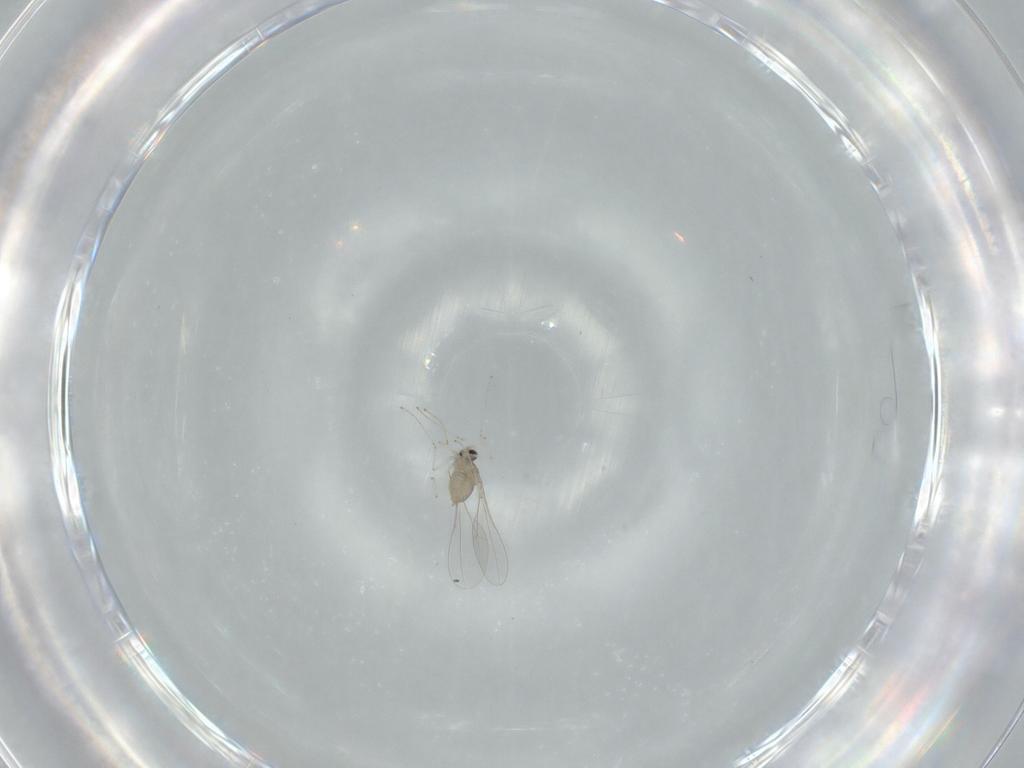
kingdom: Animalia
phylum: Arthropoda
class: Insecta
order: Diptera
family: Cecidomyiidae
